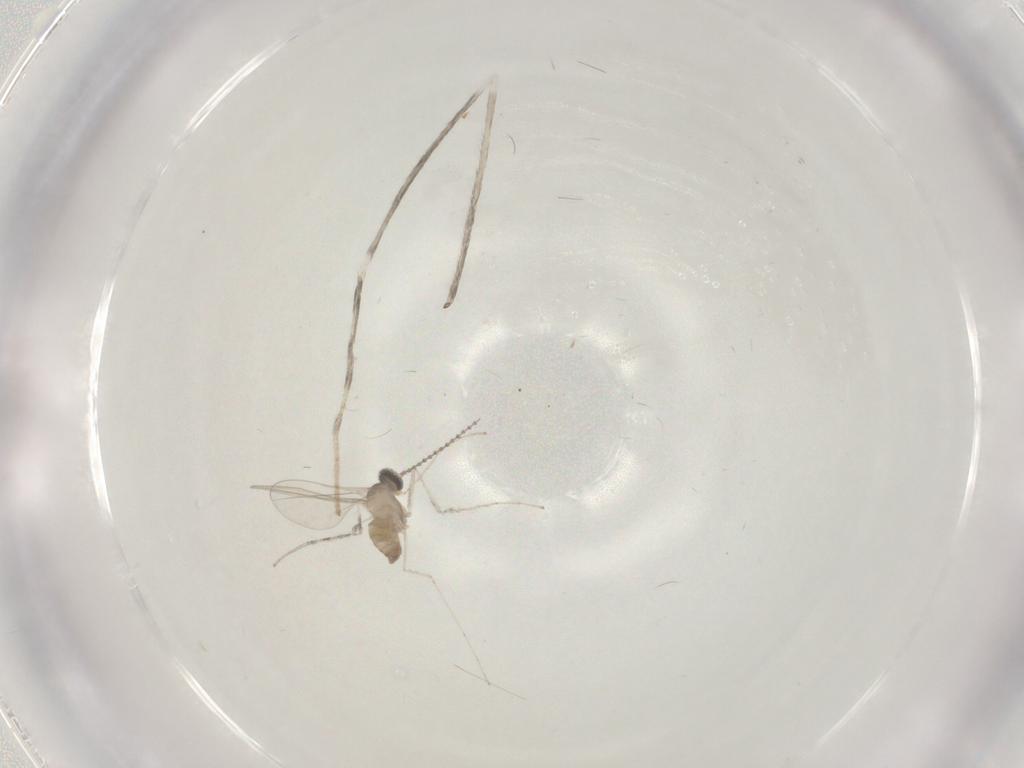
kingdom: Animalia
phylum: Arthropoda
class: Insecta
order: Diptera
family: Cecidomyiidae
